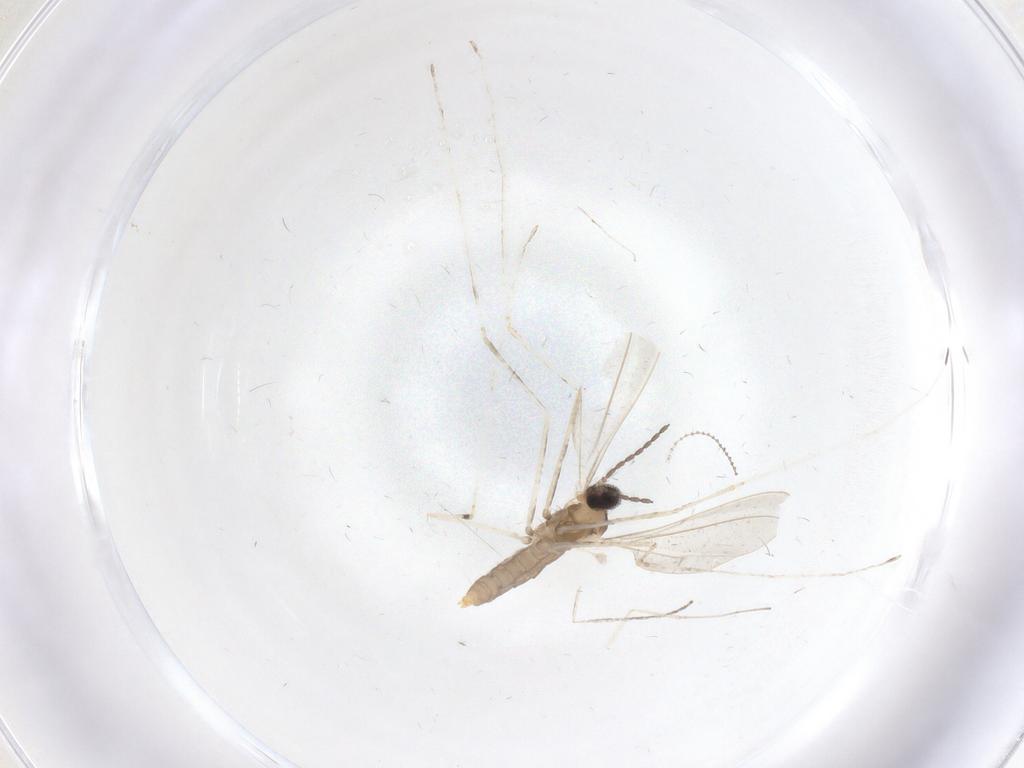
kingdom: Animalia
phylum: Arthropoda
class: Insecta
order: Diptera
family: Cecidomyiidae
